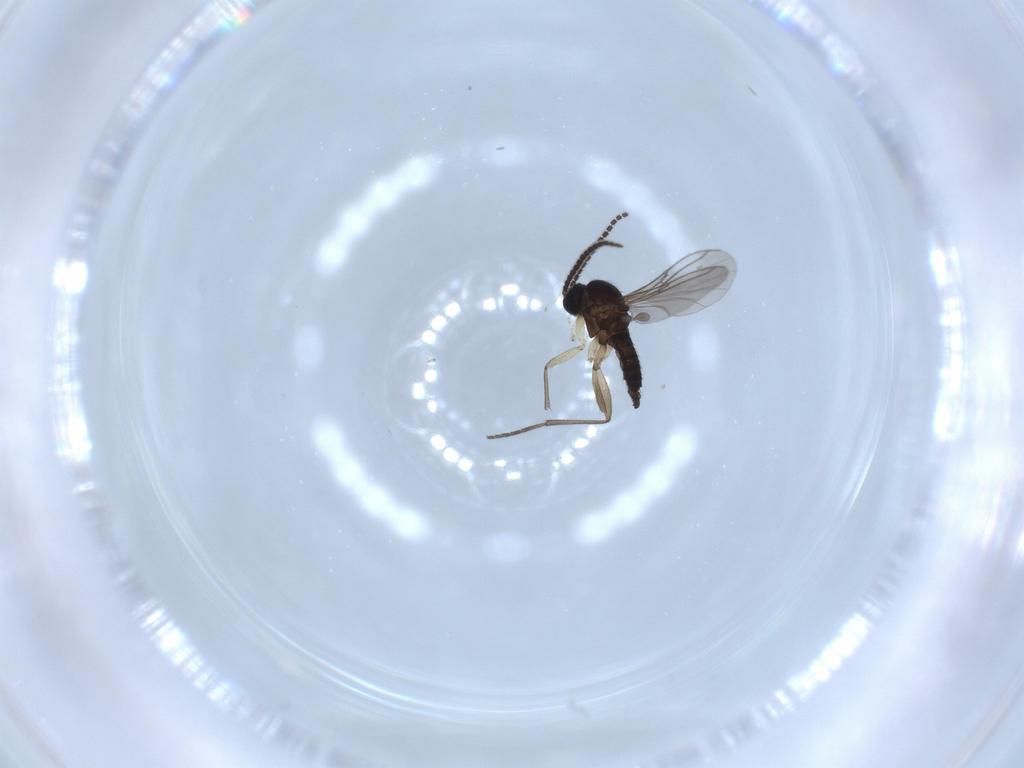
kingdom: Animalia
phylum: Arthropoda
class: Insecta
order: Diptera
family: Sciaridae
